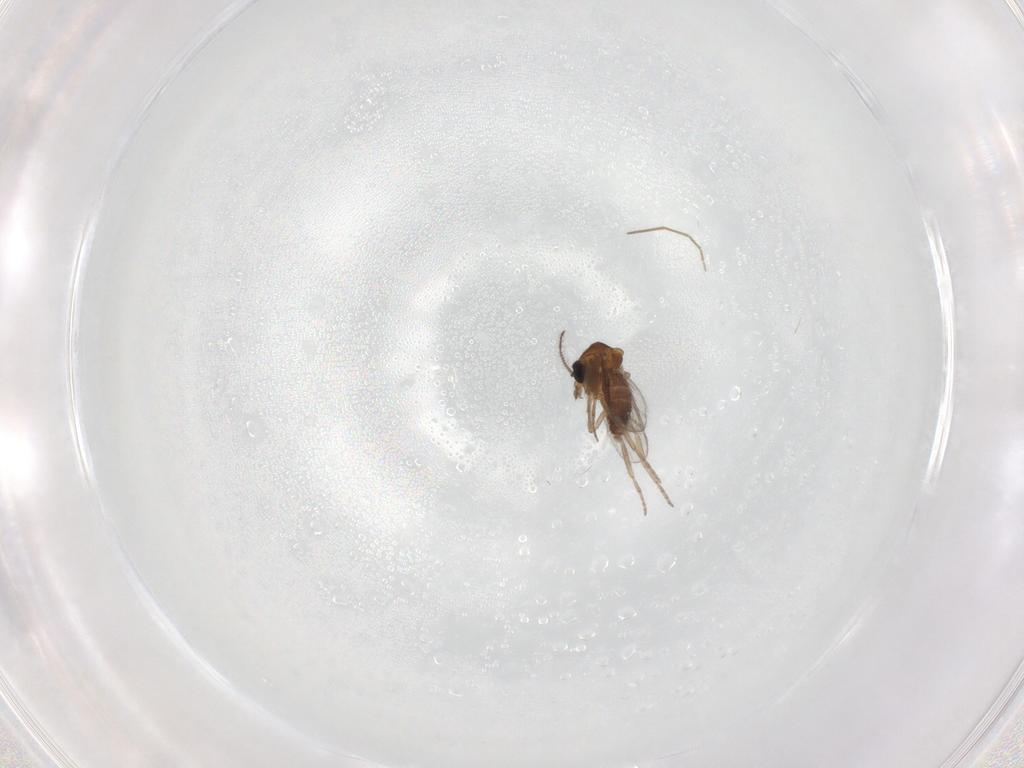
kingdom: Animalia
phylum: Arthropoda
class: Insecta
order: Diptera
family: Chironomidae
